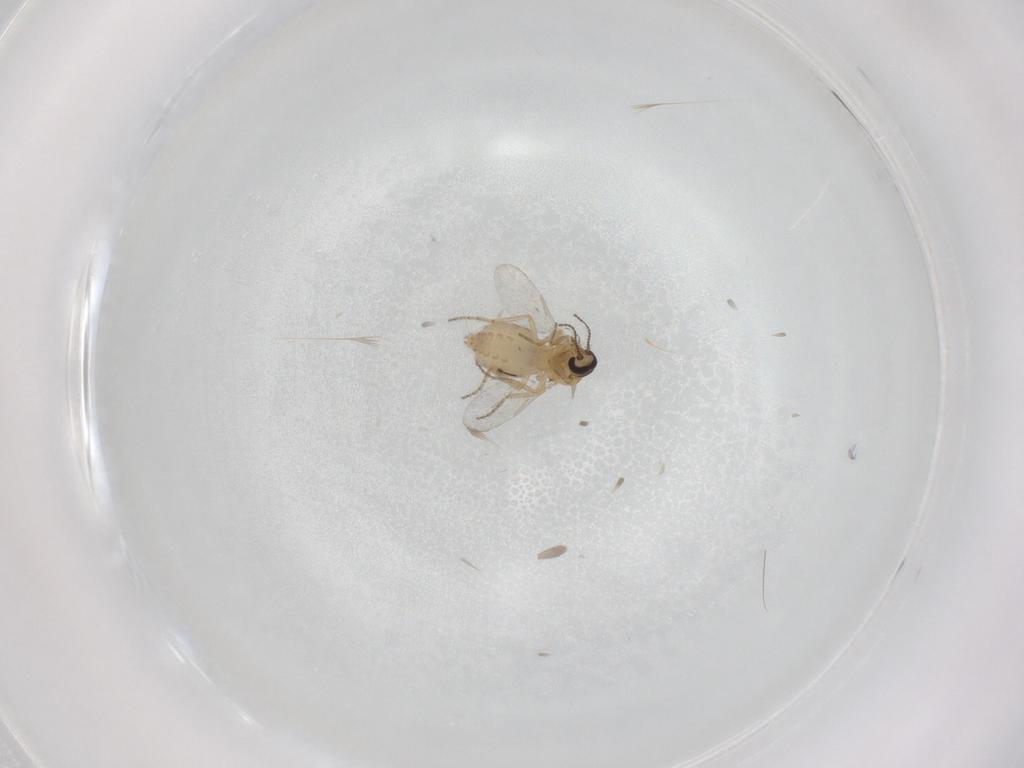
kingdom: Animalia
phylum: Arthropoda
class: Insecta
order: Diptera
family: Ceratopogonidae
